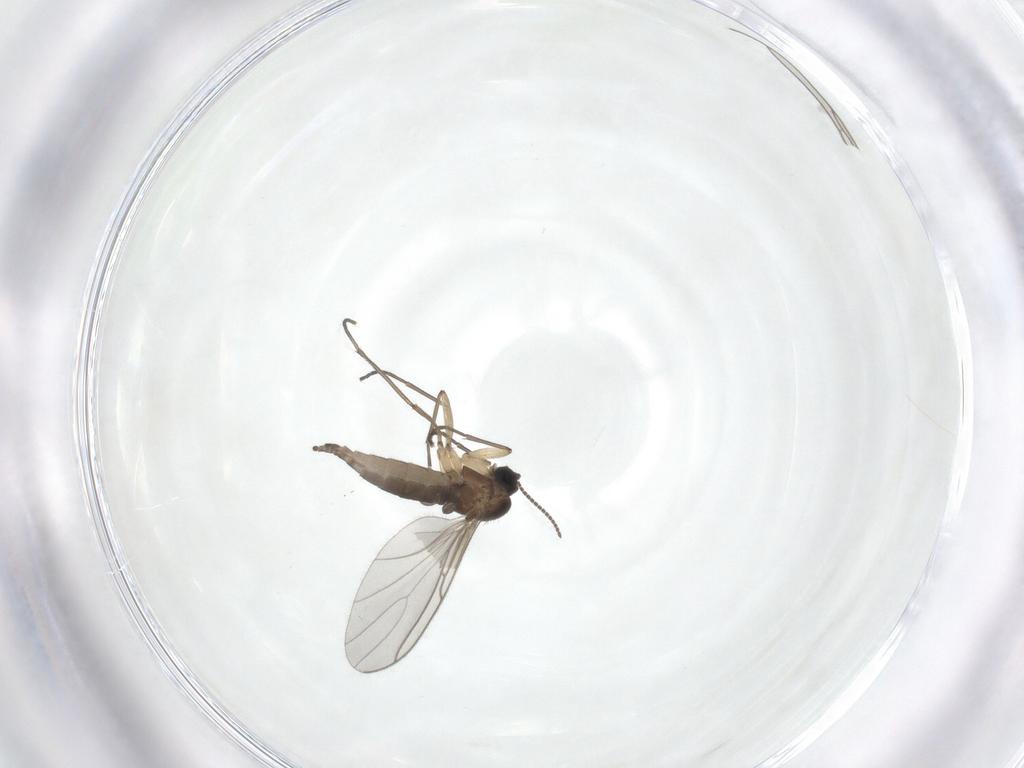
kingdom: Animalia
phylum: Arthropoda
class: Insecta
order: Diptera
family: Sciaridae
